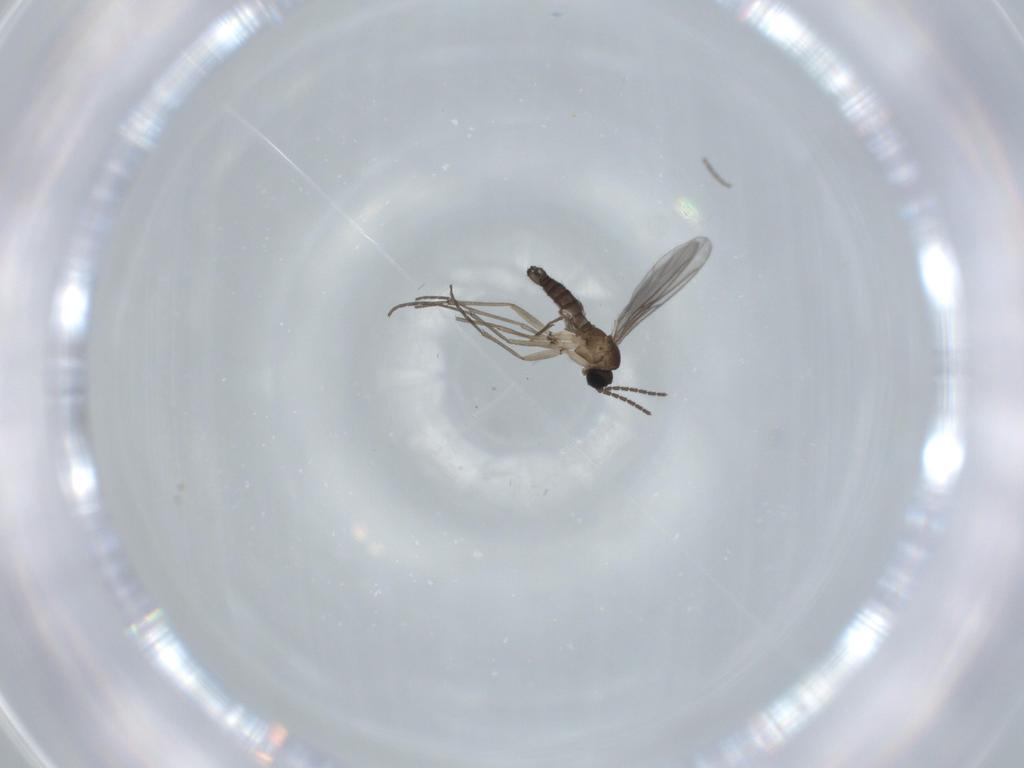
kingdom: Animalia
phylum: Arthropoda
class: Insecta
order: Diptera
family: Sciaridae
